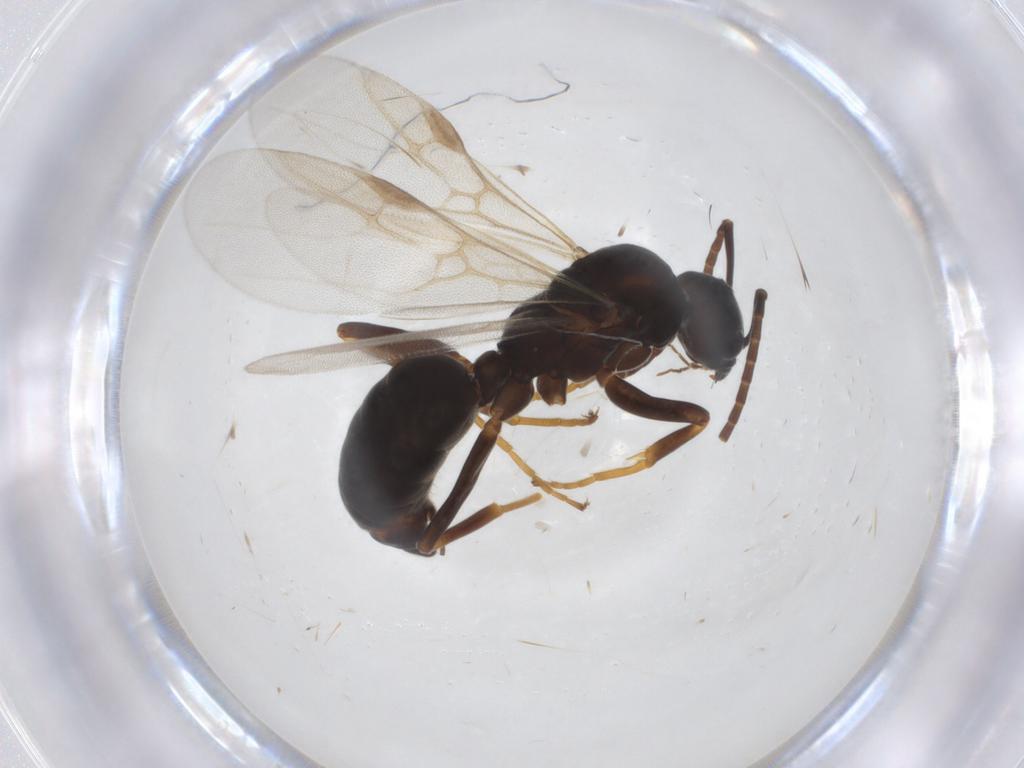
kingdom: Animalia
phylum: Arthropoda
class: Insecta
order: Hymenoptera
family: Formicidae
